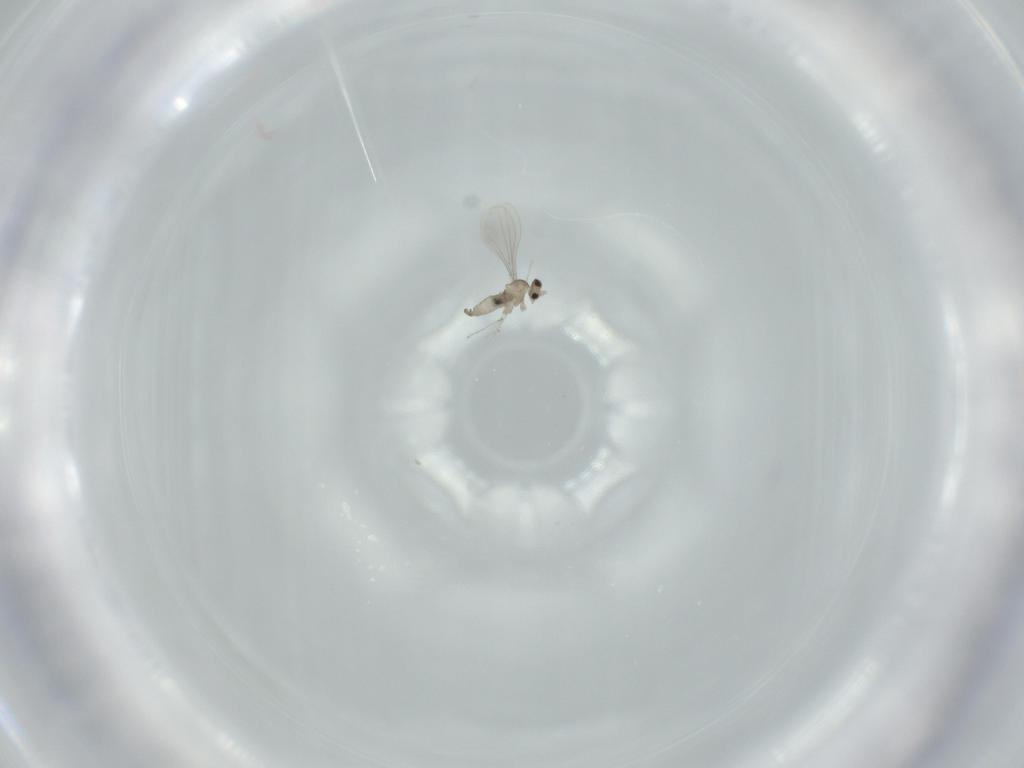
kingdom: Animalia
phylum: Arthropoda
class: Insecta
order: Diptera
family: Cecidomyiidae
